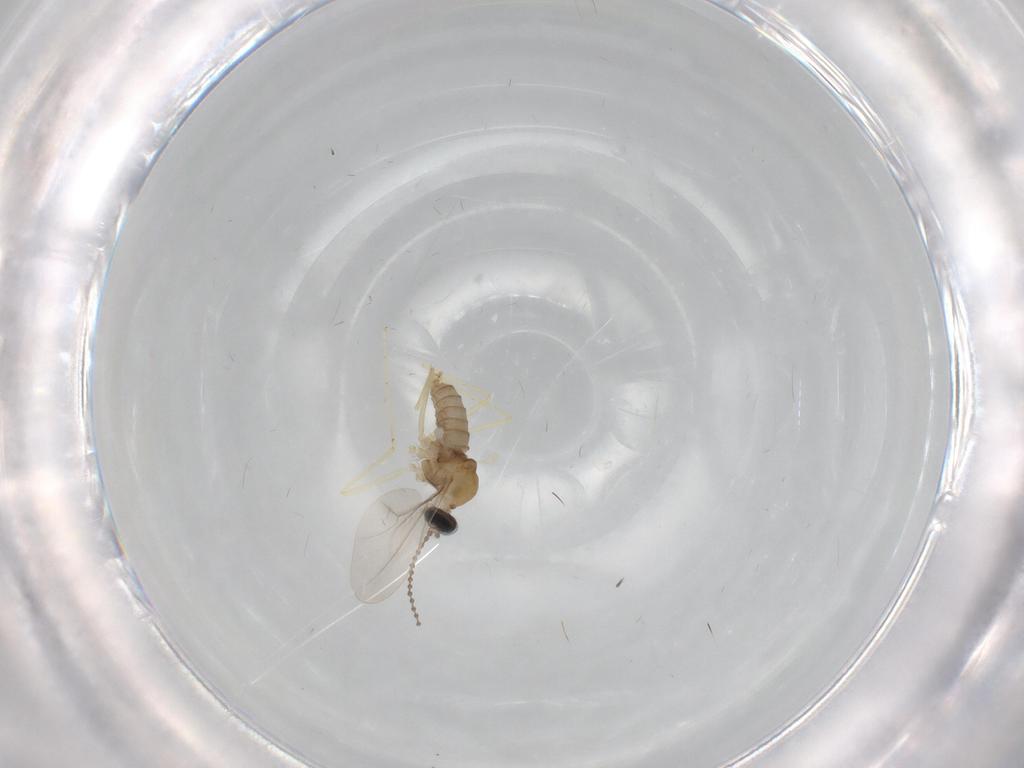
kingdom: Animalia
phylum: Arthropoda
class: Insecta
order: Diptera
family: Cecidomyiidae
